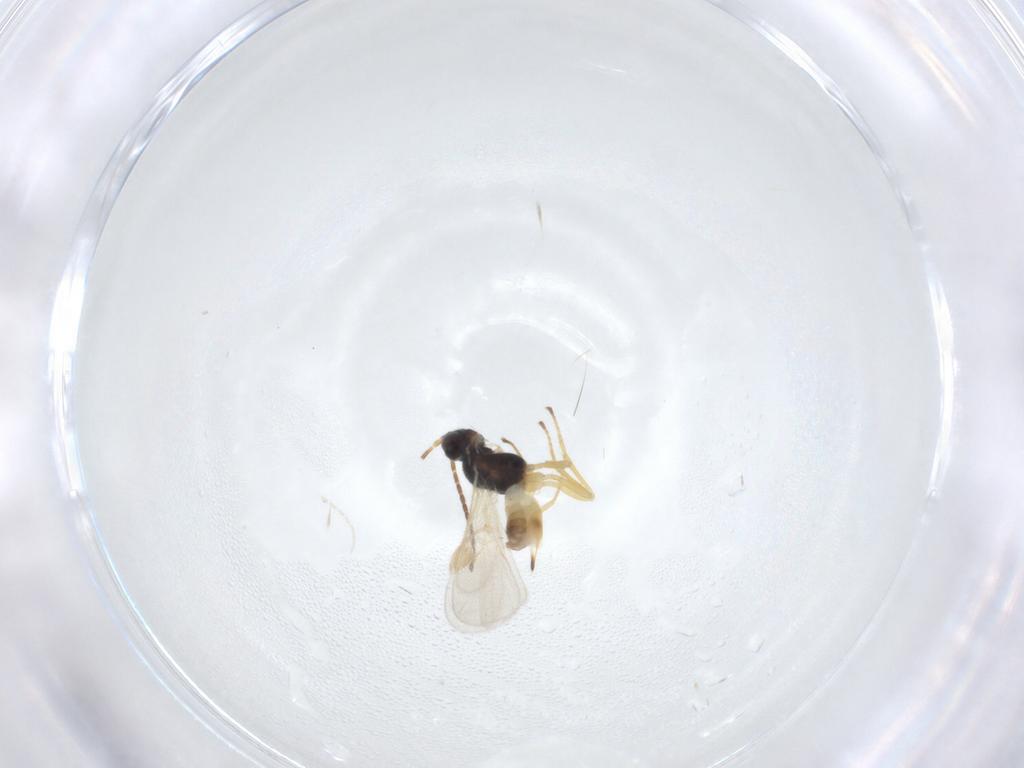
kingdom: Animalia
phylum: Arthropoda
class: Insecta
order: Hymenoptera
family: Braconidae
